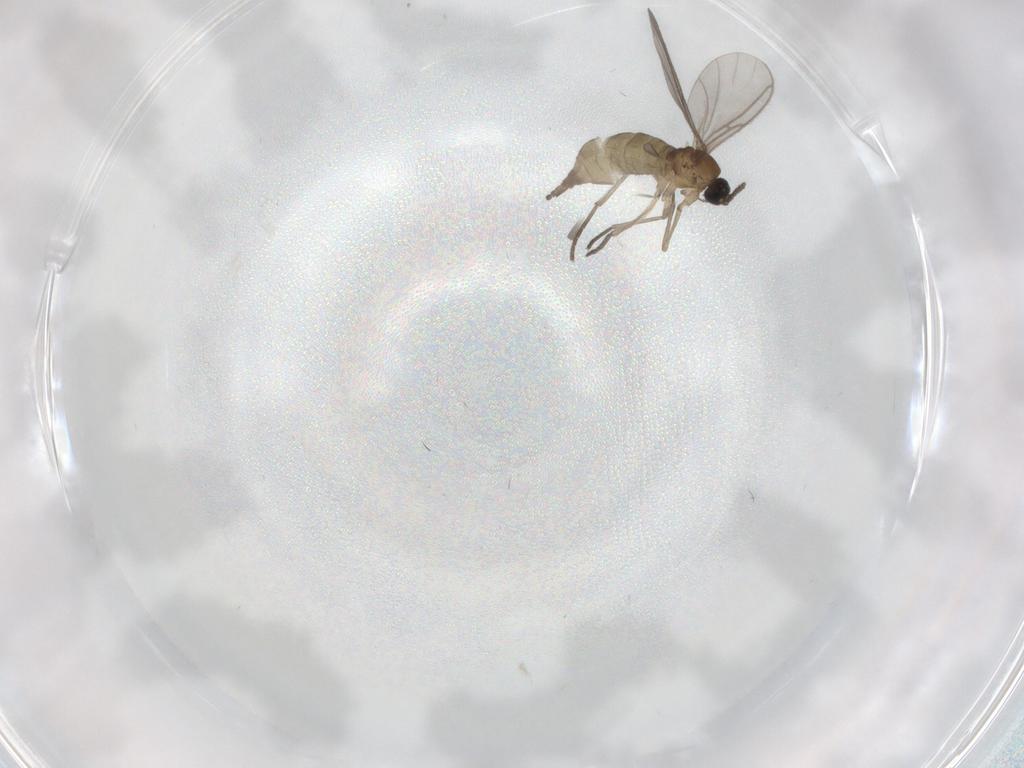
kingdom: Animalia
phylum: Arthropoda
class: Insecta
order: Diptera
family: Sciaridae
